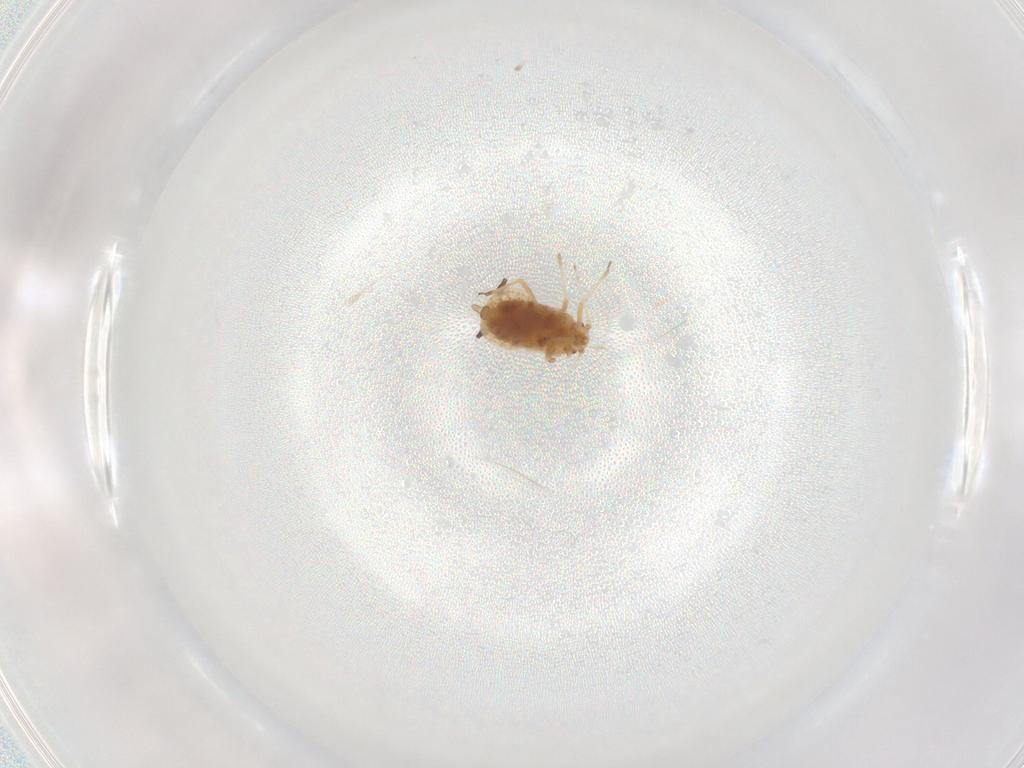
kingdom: Animalia
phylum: Arthropoda
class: Insecta
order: Hemiptera
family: Aphididae
